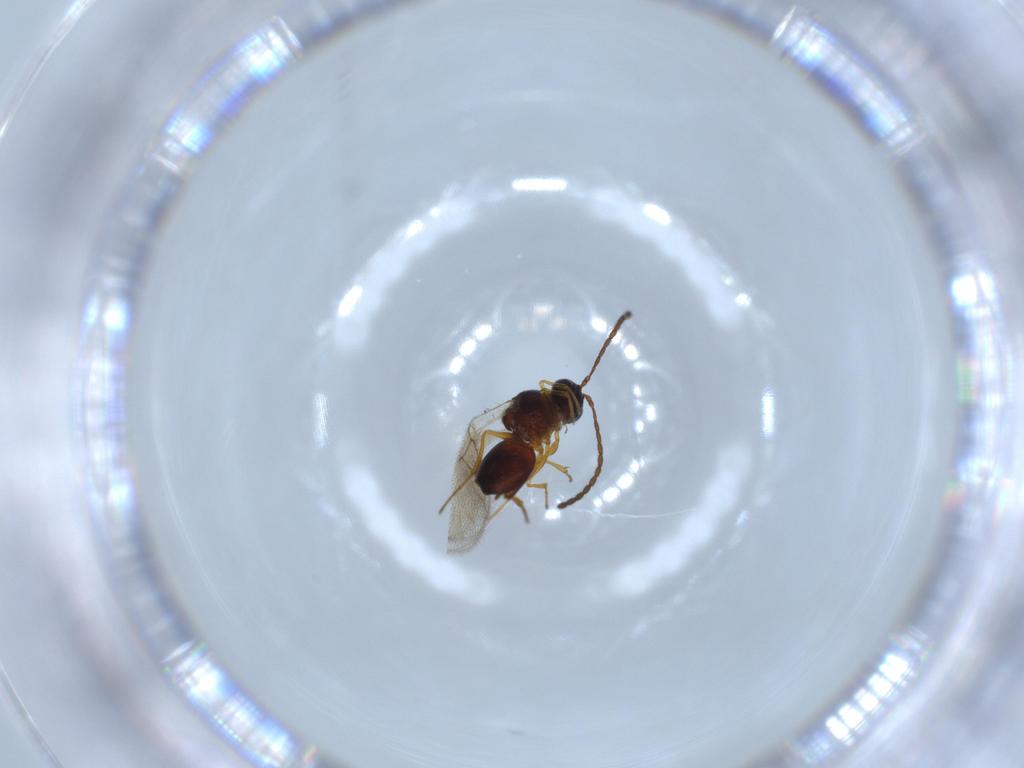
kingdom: Animalia
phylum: Arthropoda
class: Insecta
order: Hymenoptera
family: Figitidae
